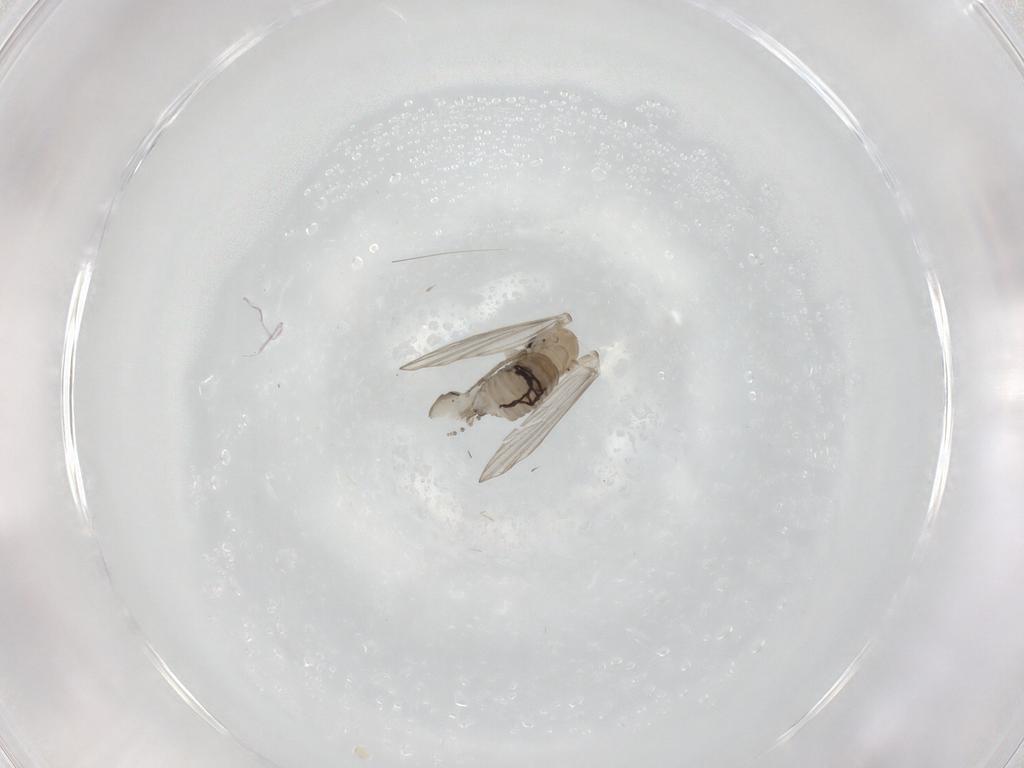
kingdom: Animalia
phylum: Arthropoda
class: Insecta
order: Diptera
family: Psychodidae
